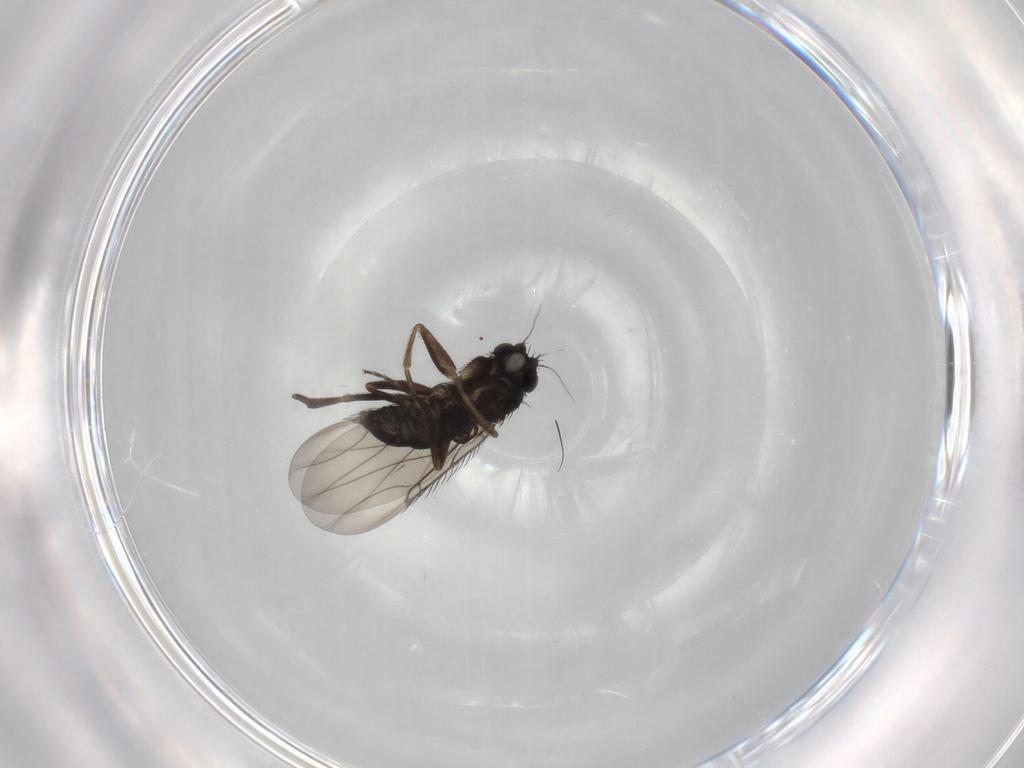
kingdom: Animalia
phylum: Arthropoda
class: Insecta
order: Diptera
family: Phoridae
